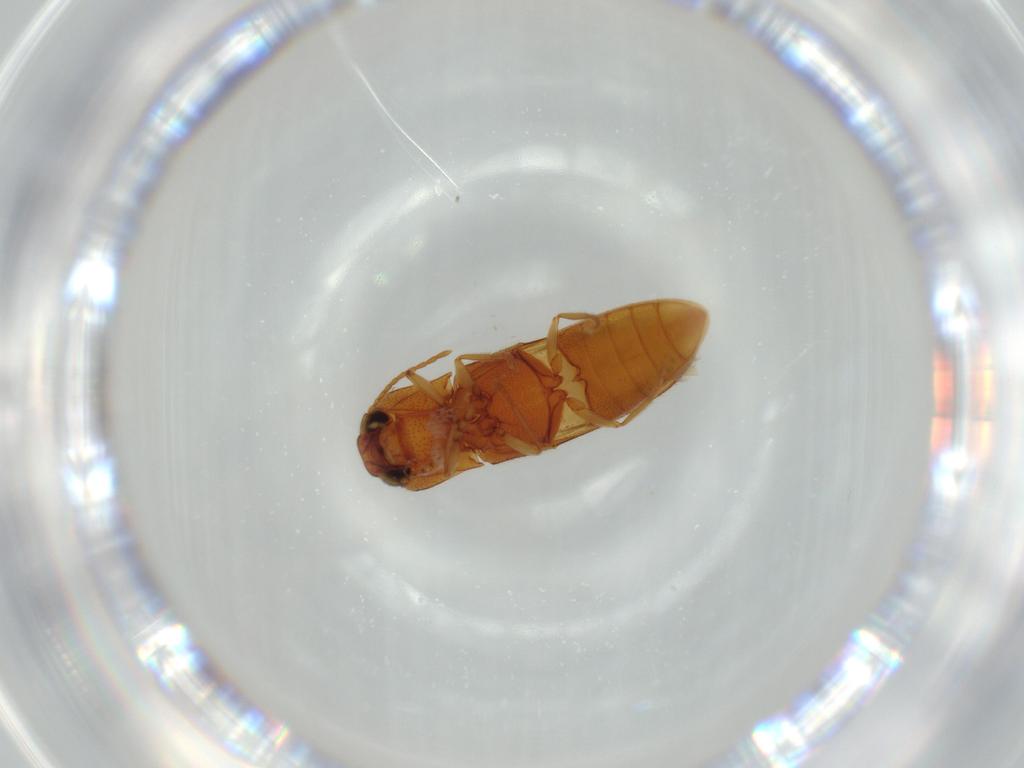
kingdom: Animalia
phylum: Arthropoda
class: Insecta
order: Coleoptera
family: Elateridae
